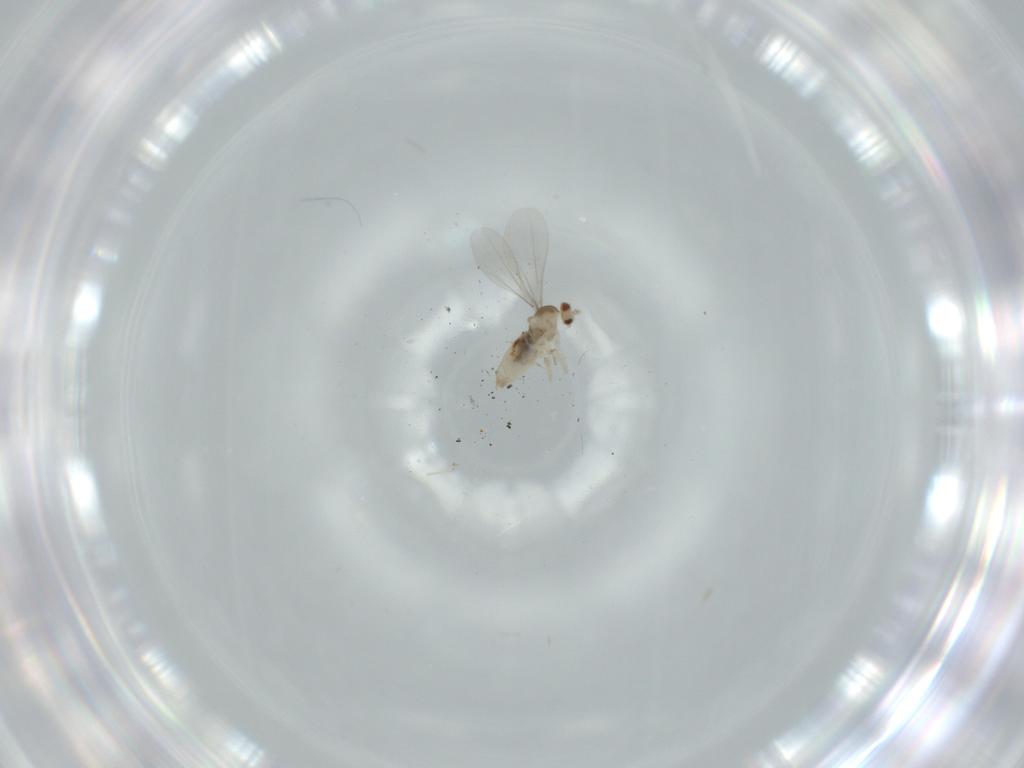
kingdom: Animalia
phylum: Arthropoda
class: Insecta
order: Diptera
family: Cecidomyiidae
